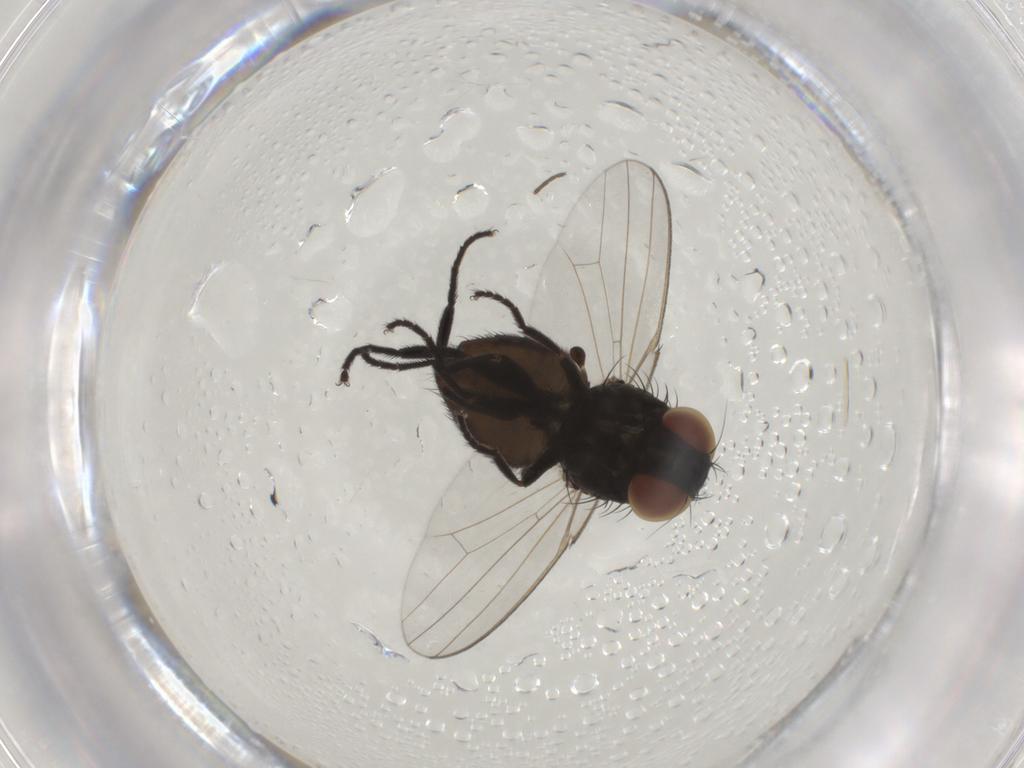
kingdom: Animalia
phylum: Arthropoda
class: Insecta
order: Diptera
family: Milichiidae
